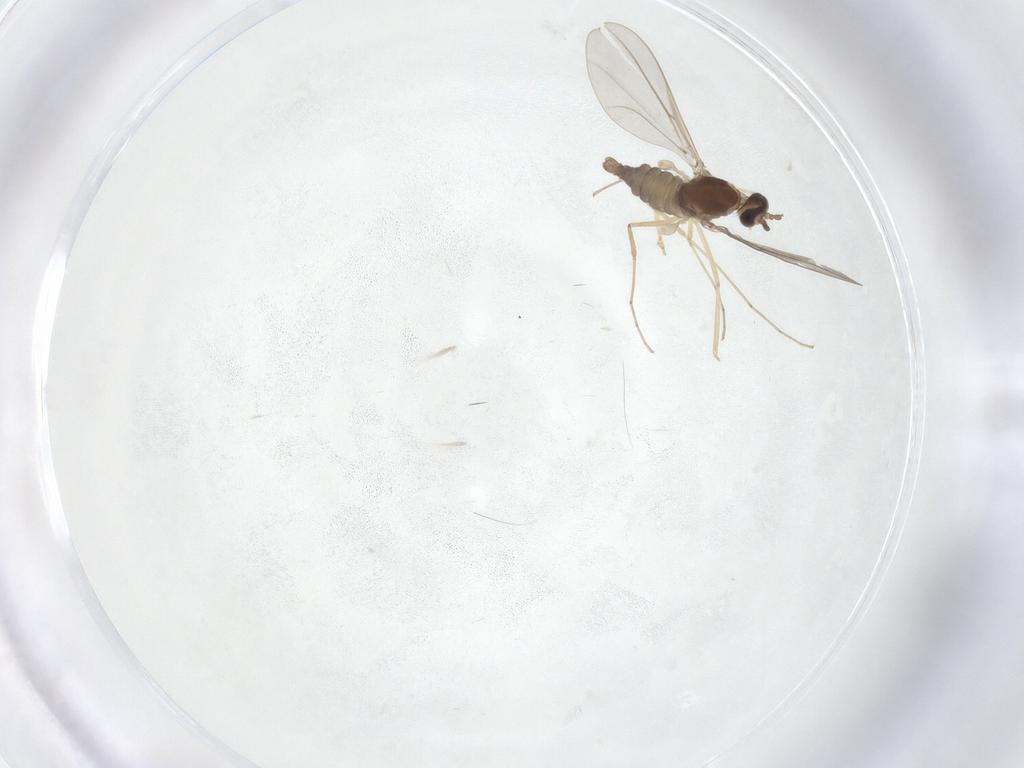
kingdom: Animalia
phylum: Arthropoda
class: Insecta
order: Diptera
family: Cecidomyiidae
